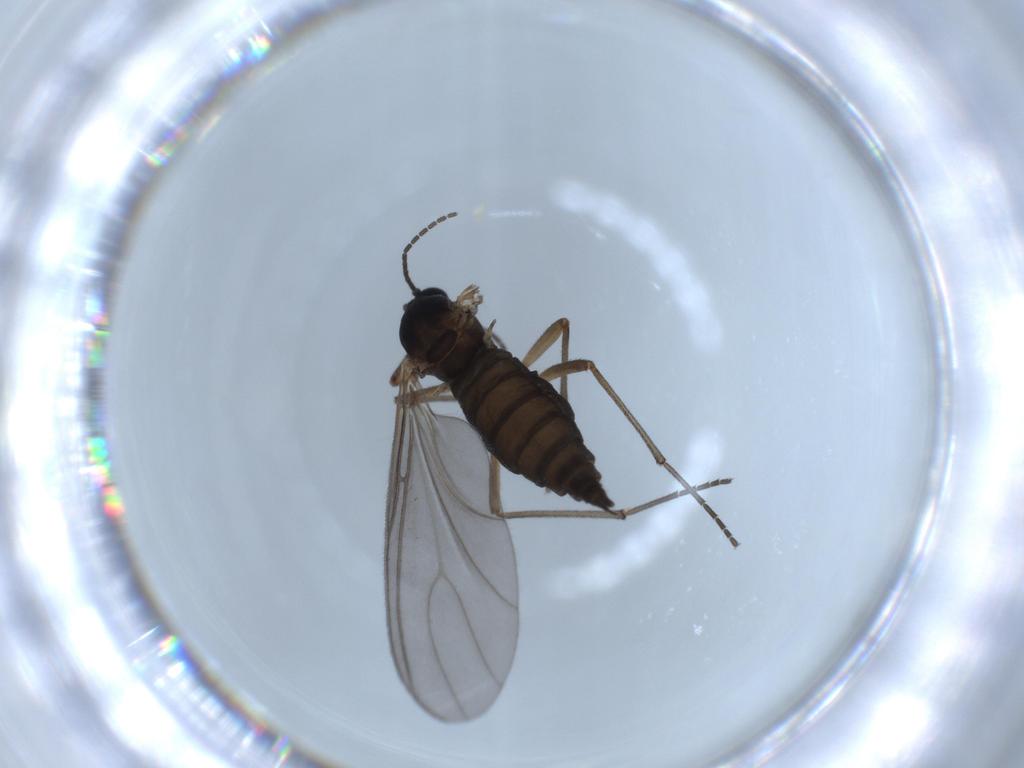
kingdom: Animalia
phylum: Arthropoda
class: Insecta
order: Diptera
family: Sciaridae
